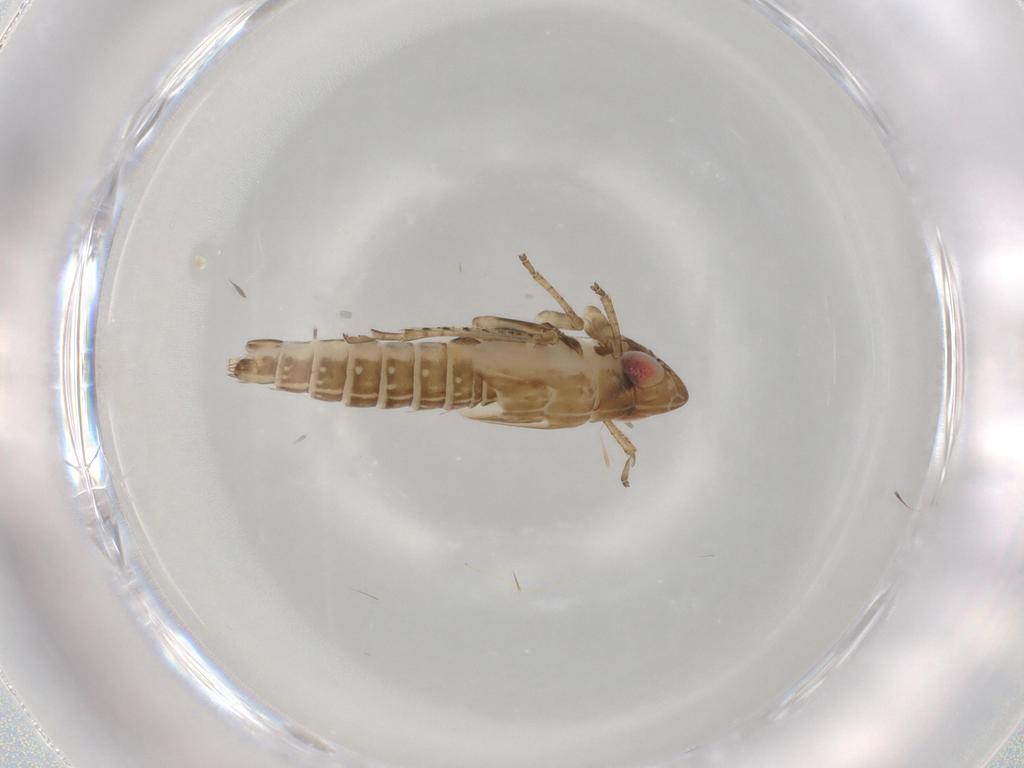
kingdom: Animalia
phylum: Arthropoda
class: Insecta
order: Hemiptera
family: Cicadellidae
